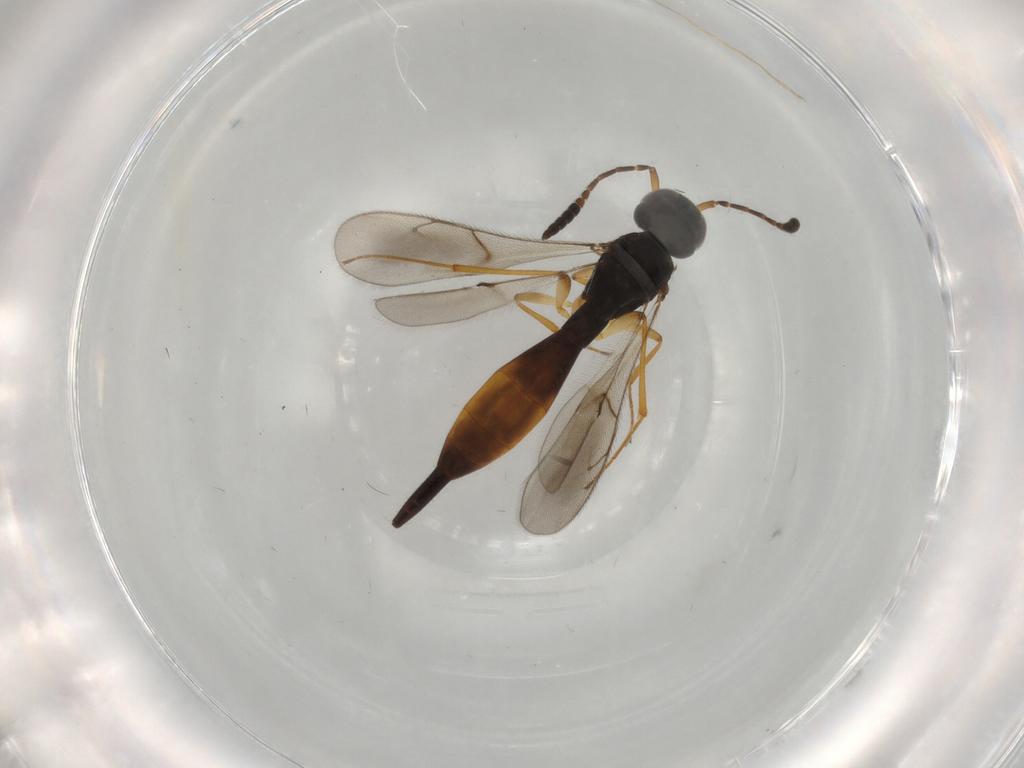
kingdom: Animalia
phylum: Arthropoda
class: Insecta
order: Hymenoptera
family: Scelionidae
